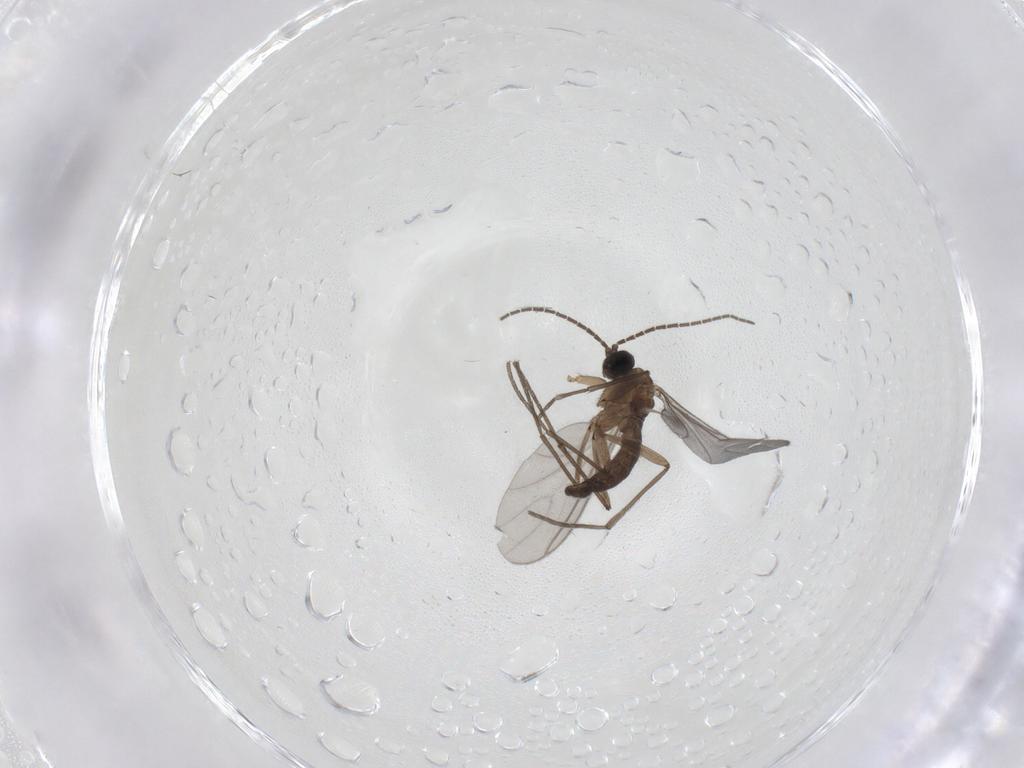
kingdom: Animalia
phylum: Arthropoda
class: Insecta
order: Diptera
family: Sciaridae
